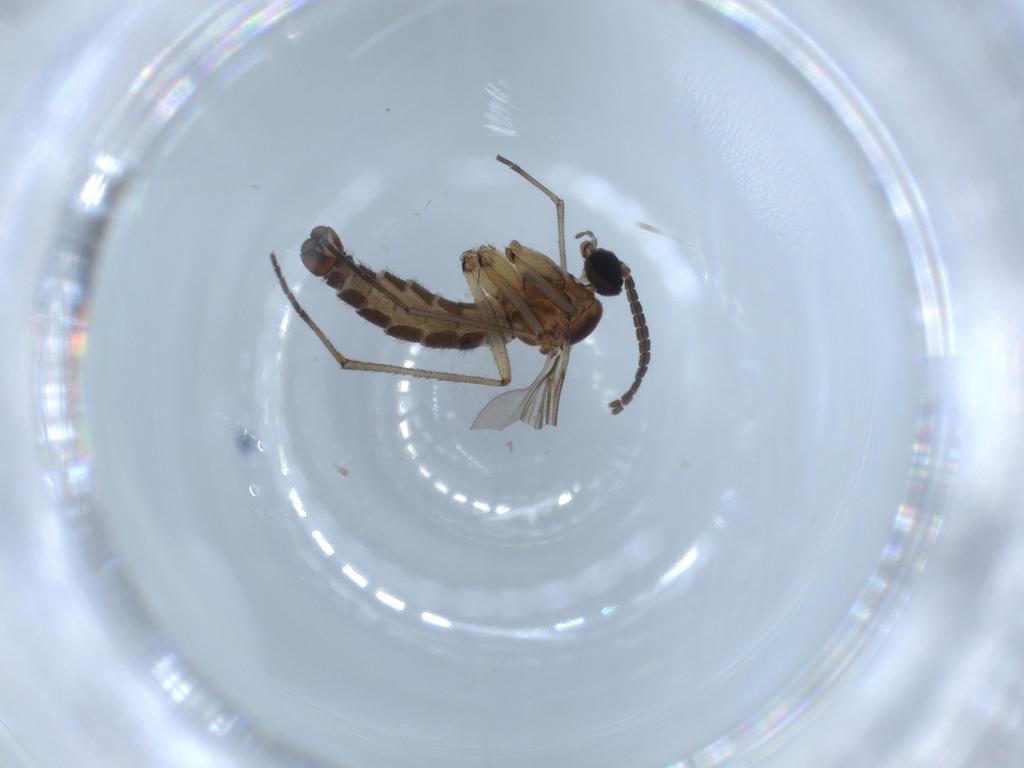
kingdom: Animalia
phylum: Arthropoda
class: Insecta
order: Diptera
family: Sciaridae
